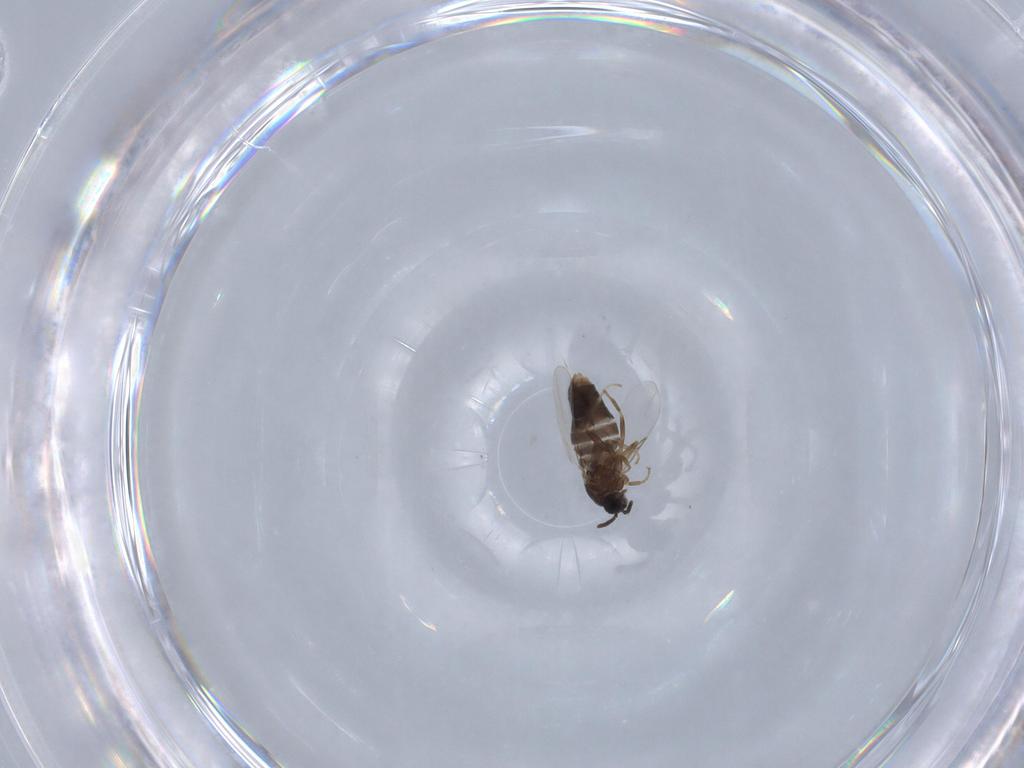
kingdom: Animalia
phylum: Arthropoda
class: Insecta
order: Diptera
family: Scatopsidae
